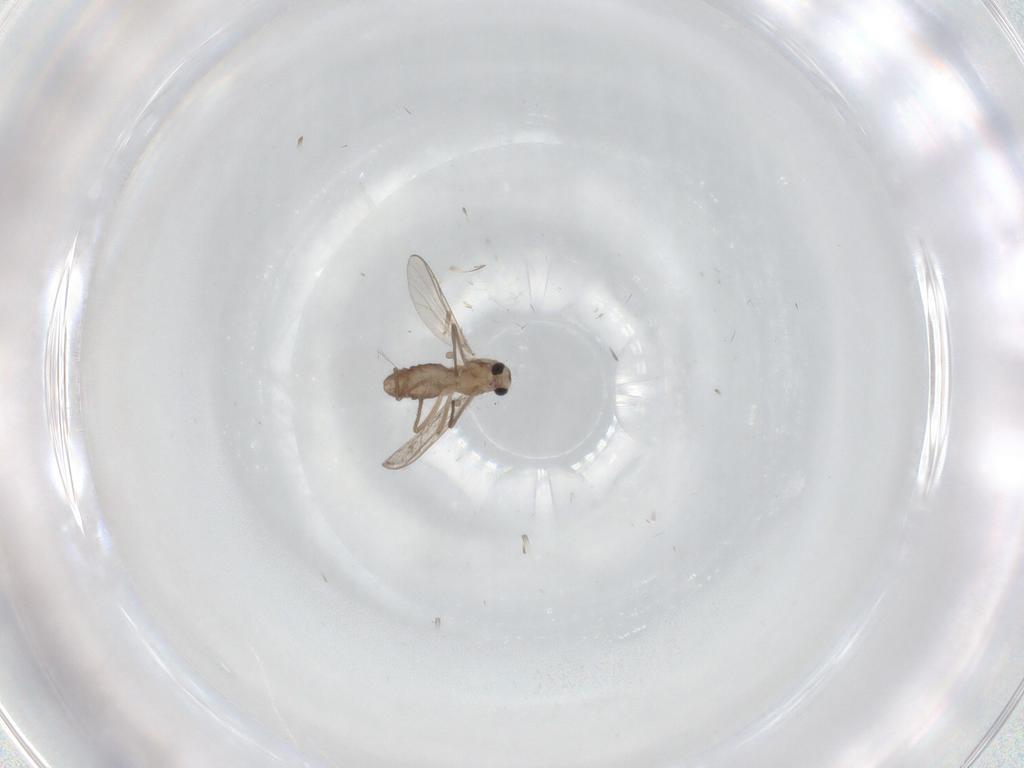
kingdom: Animalia
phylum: Arthropoda
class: Insecta
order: Diptera
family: Chironomidae
